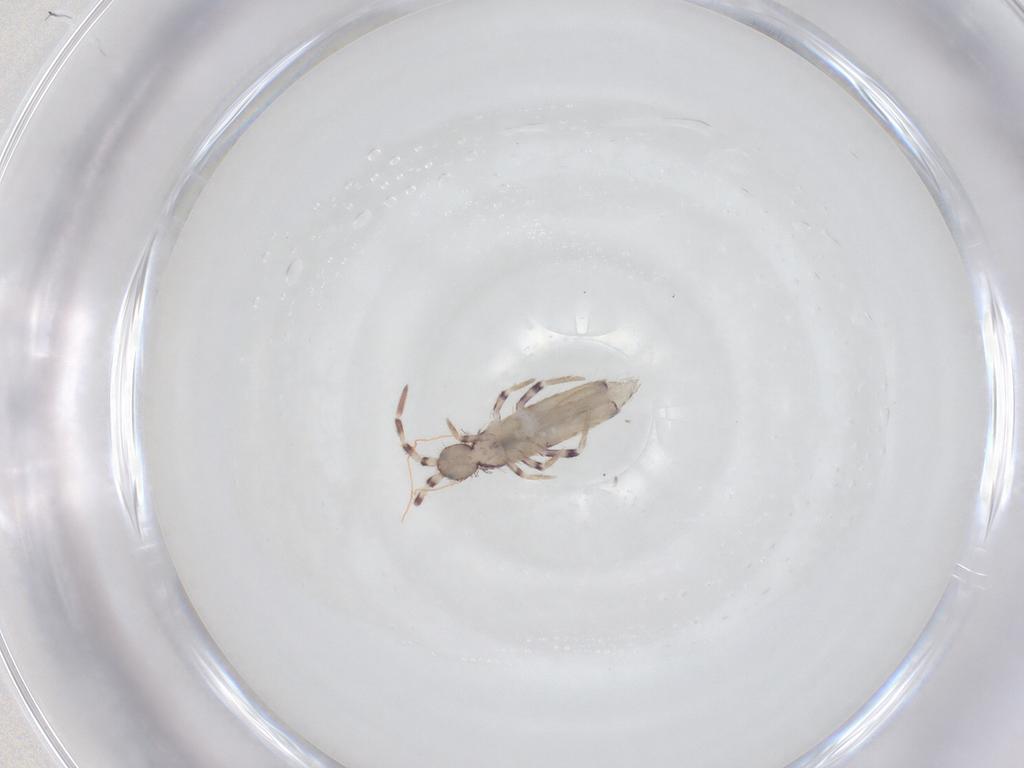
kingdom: Animalia
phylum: Arthropoda
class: Collembola
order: Entomobryomorpha
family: Entomobryidae
